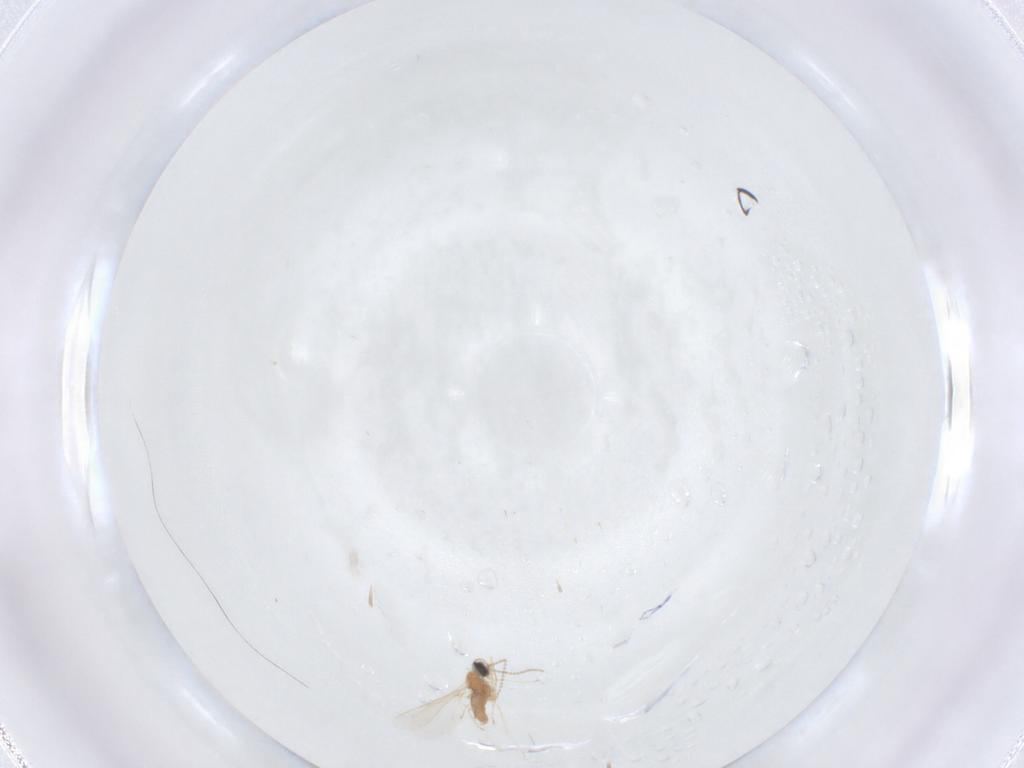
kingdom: Animalia
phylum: Arthropoda
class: Insecta
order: Diptera
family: Cecidomyiidae
